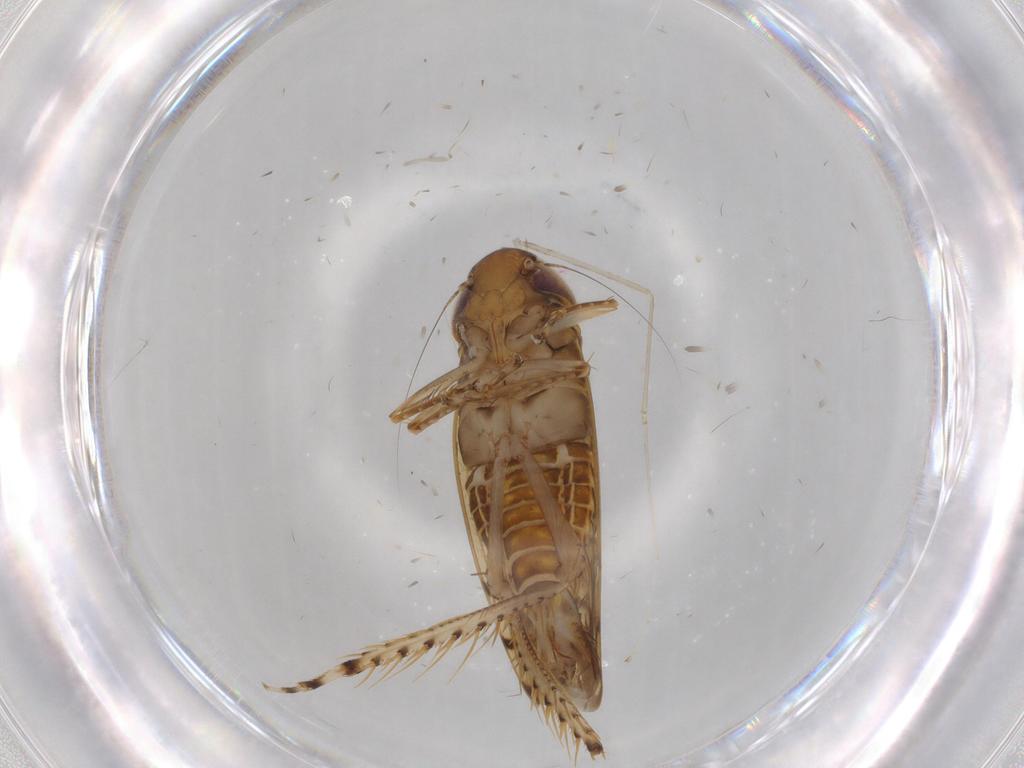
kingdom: Animalia
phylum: Arthropoda
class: Insecta
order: Hemiptera
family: Cicadellidae
